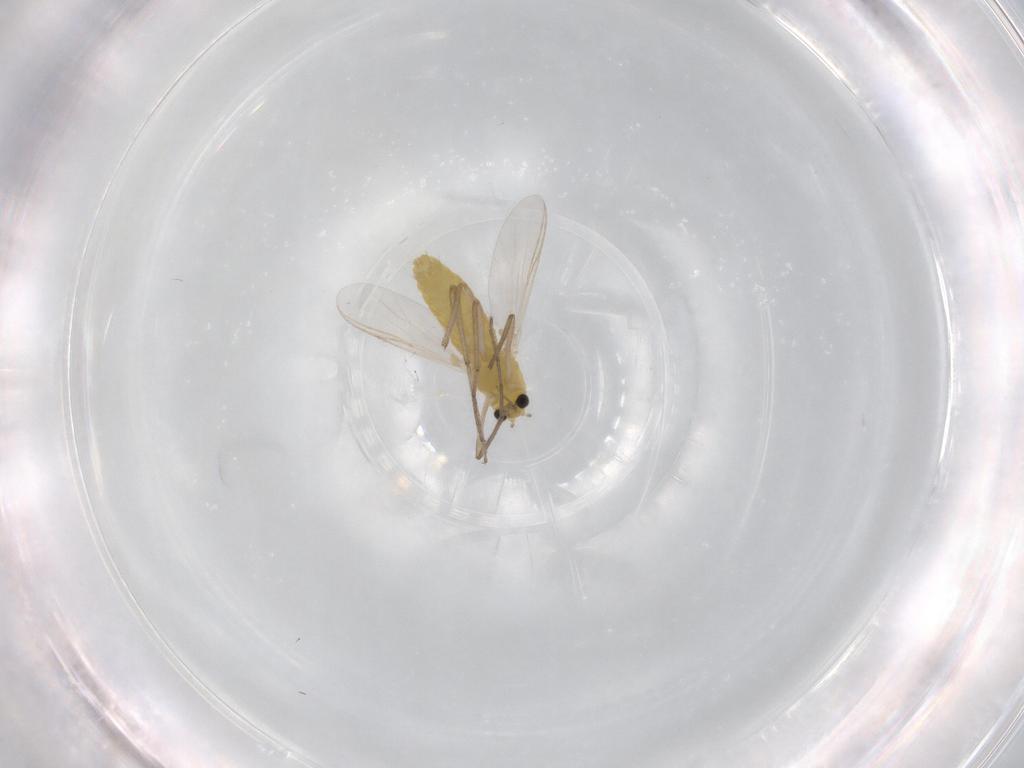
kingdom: Animalia
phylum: Arthropoda
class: Insecta
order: Diptera
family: Chironomidae
